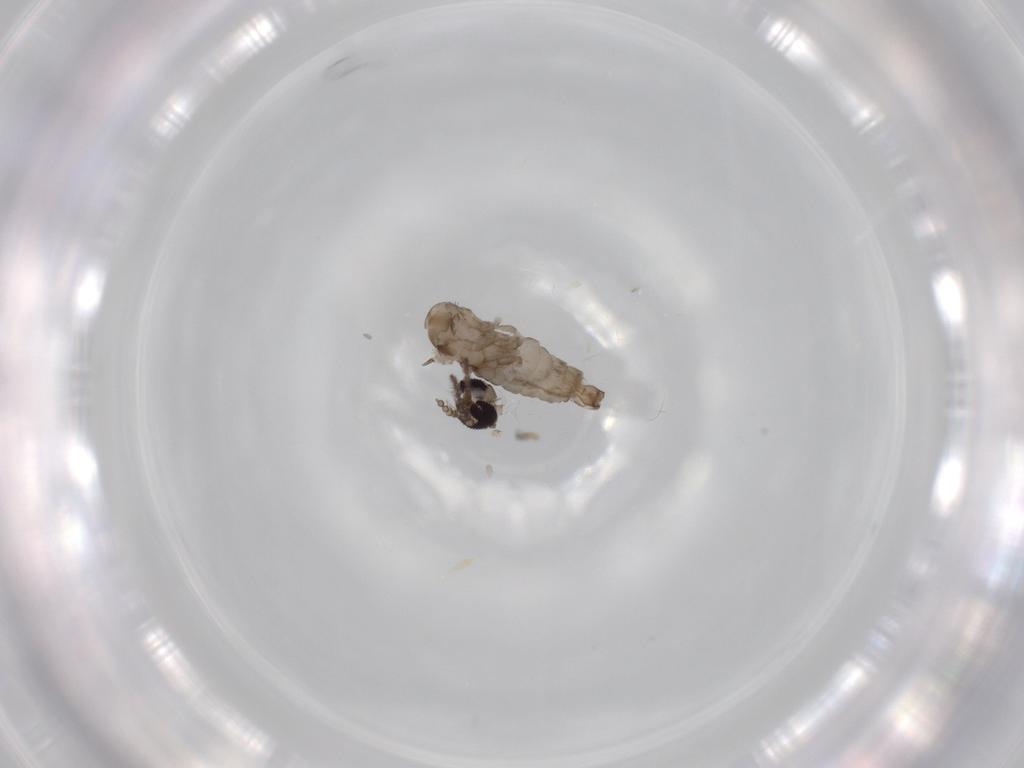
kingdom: Animalia
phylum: Arthropoda
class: Insecta
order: Diptera
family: Psychodidae
